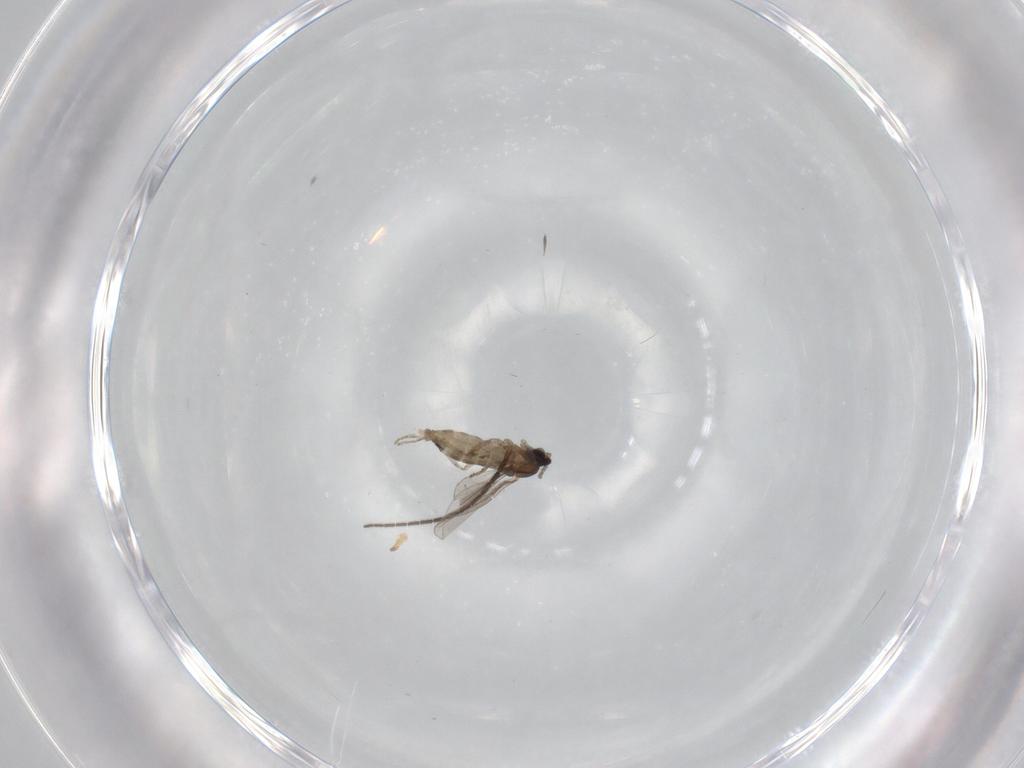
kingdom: Animalia
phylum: Arthropoda
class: Insecta
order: Diptera
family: Cecidomyiidae
